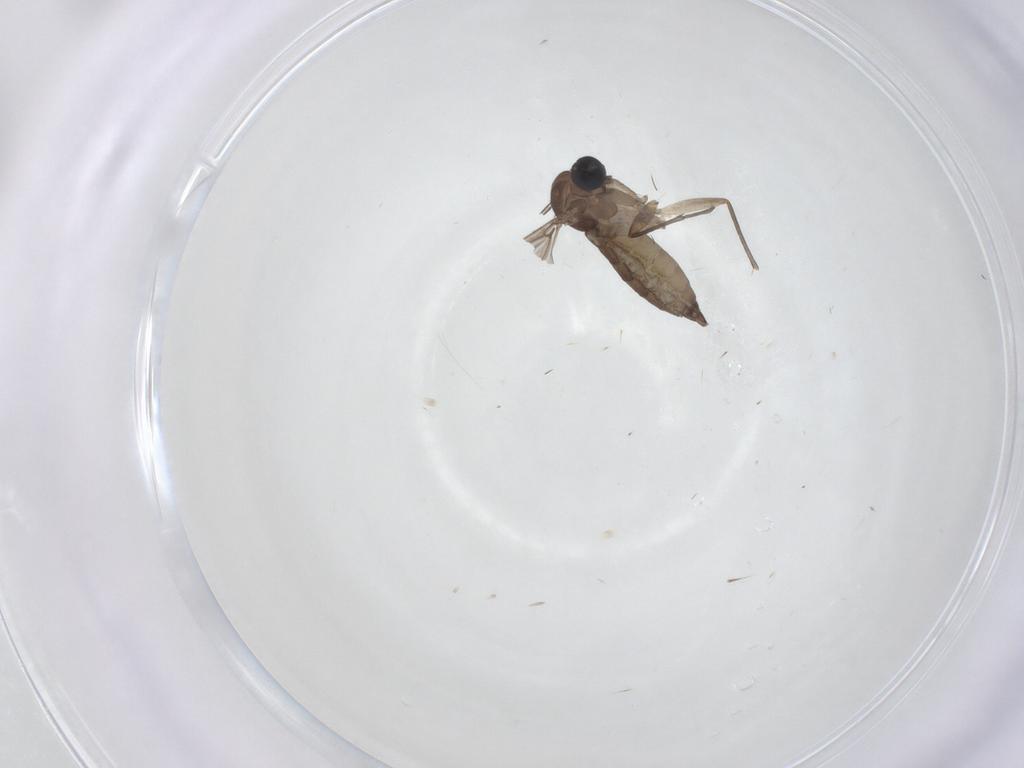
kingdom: Animalia
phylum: Arthropoda
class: Insecta
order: Diptera
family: Sciaridae
